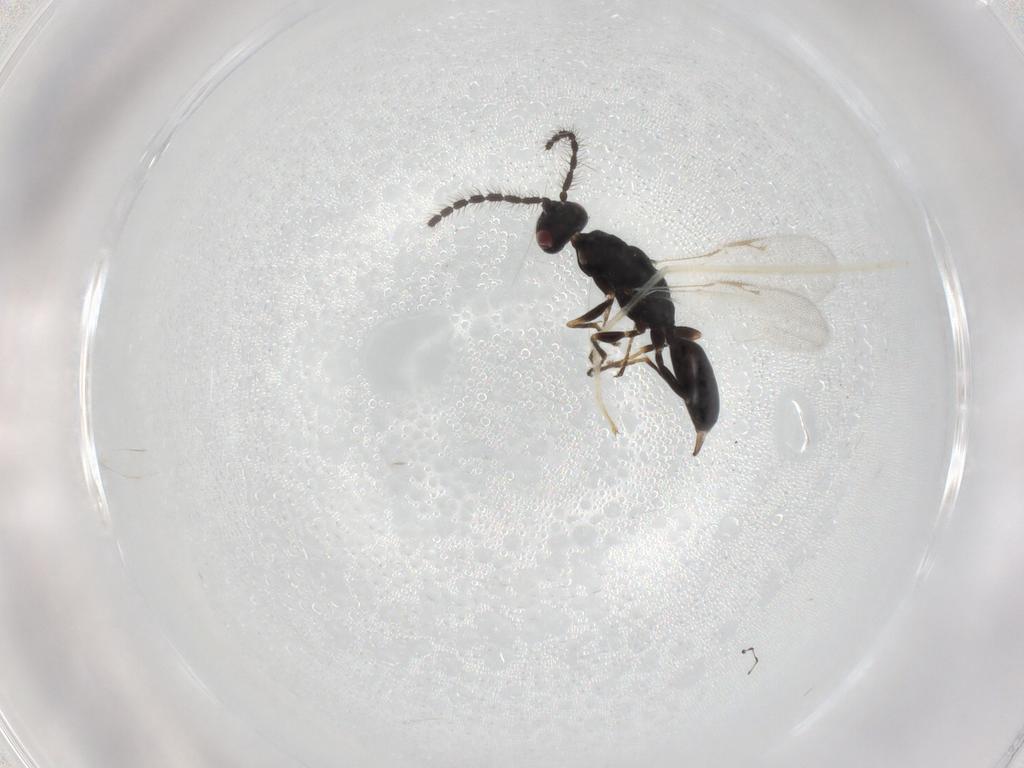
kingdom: Animalia
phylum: Arthropoda
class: Insecta
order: Hymenoptera
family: Eurytomidae
